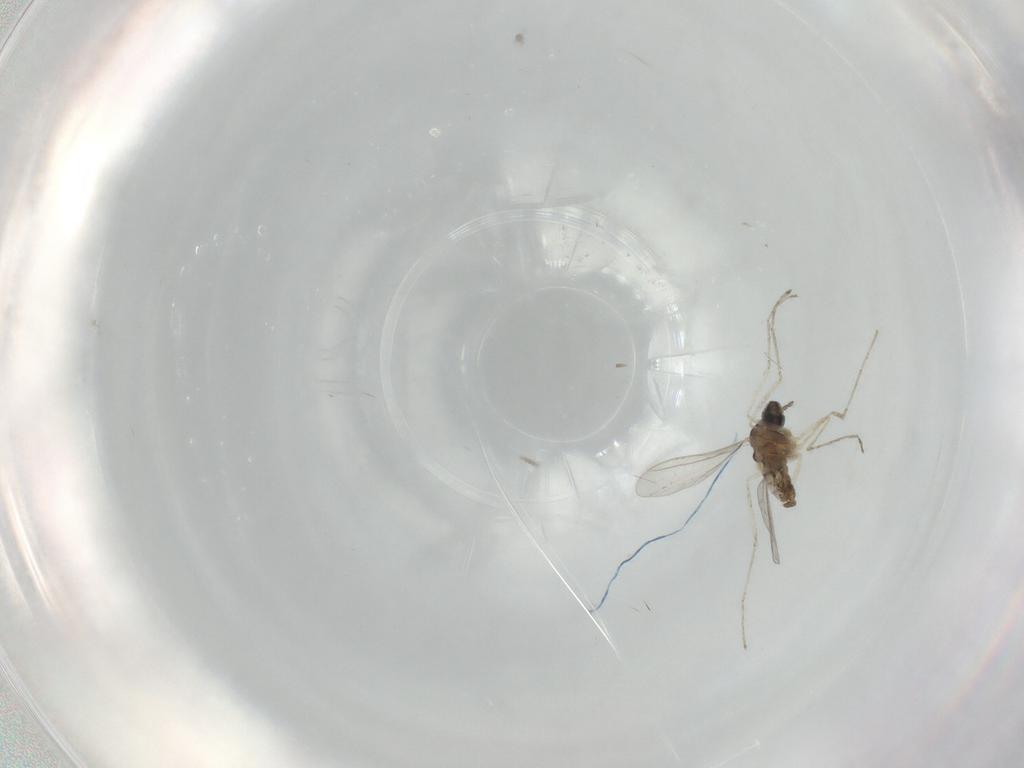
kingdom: Animalia
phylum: Arthropoda
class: Insecta
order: Diptera
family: Cecidomyiidae
